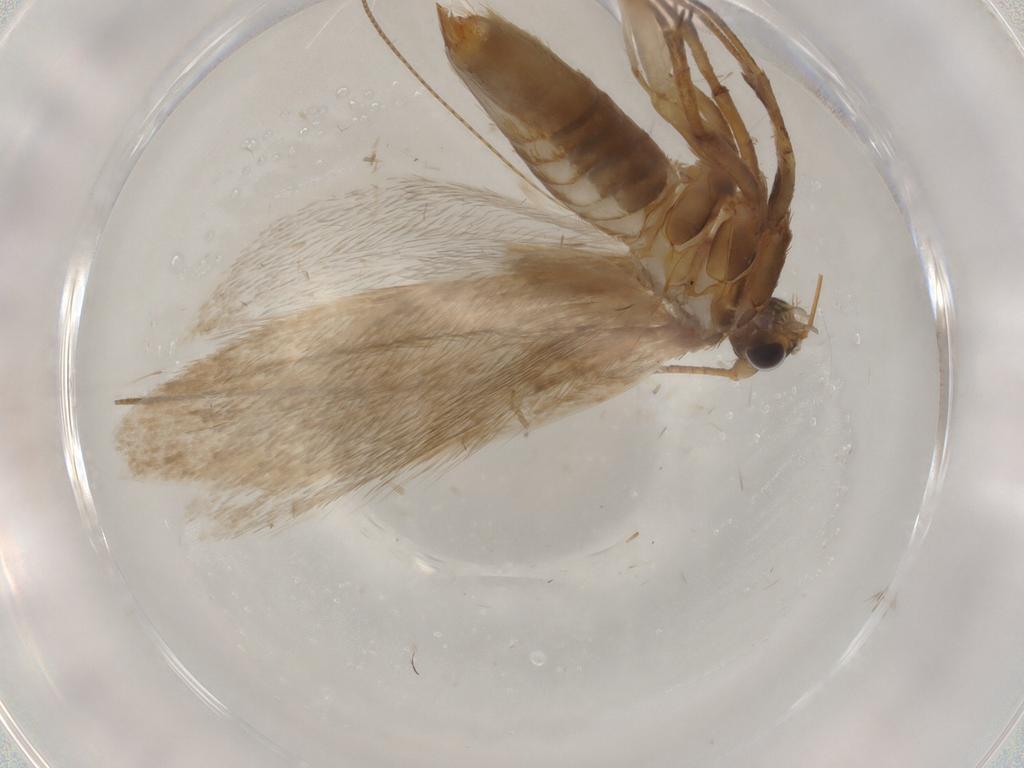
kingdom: Animalia
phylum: Arthropoda
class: Insecta
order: Lepidoptera
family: Adelidae
